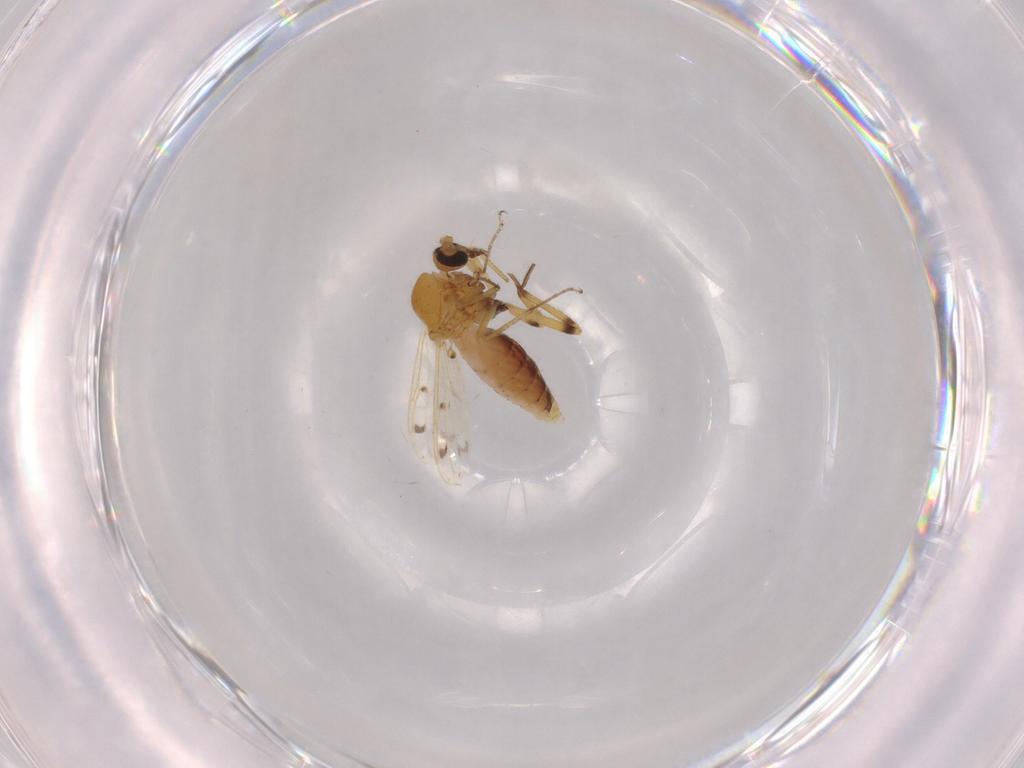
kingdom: Animalia
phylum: Arthropoda
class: Insecta
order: Diptera
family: Ceratopogonidae
